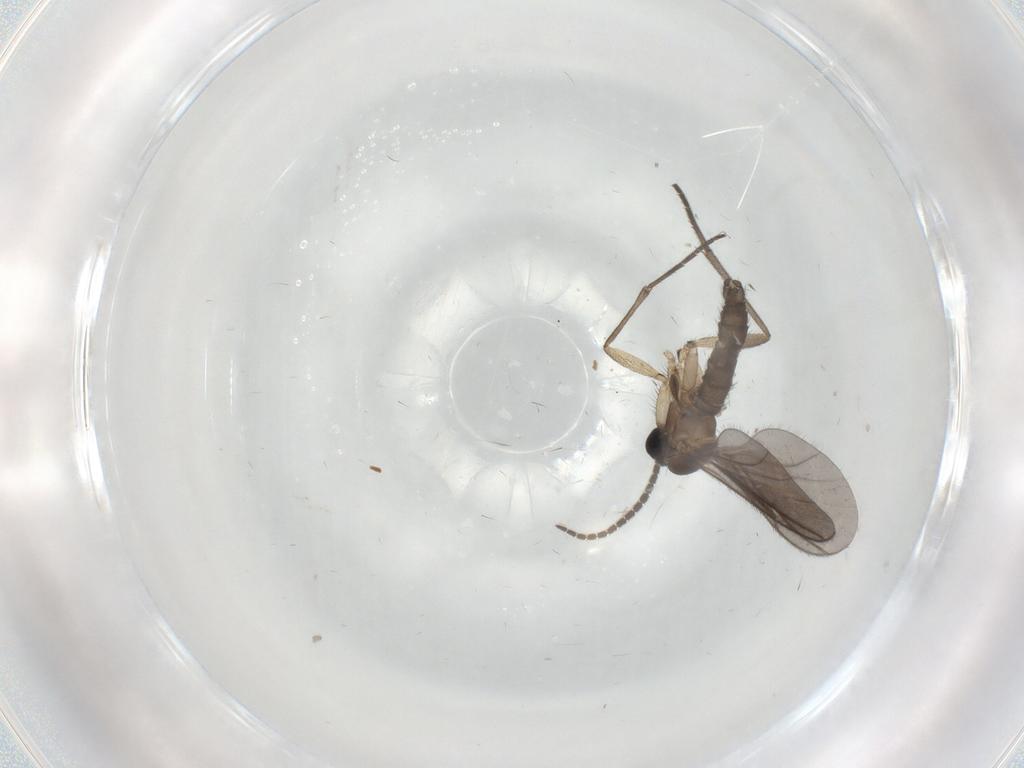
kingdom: Animalia
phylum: Arthropoda
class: Insecta
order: Diptera
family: Chironomidae
